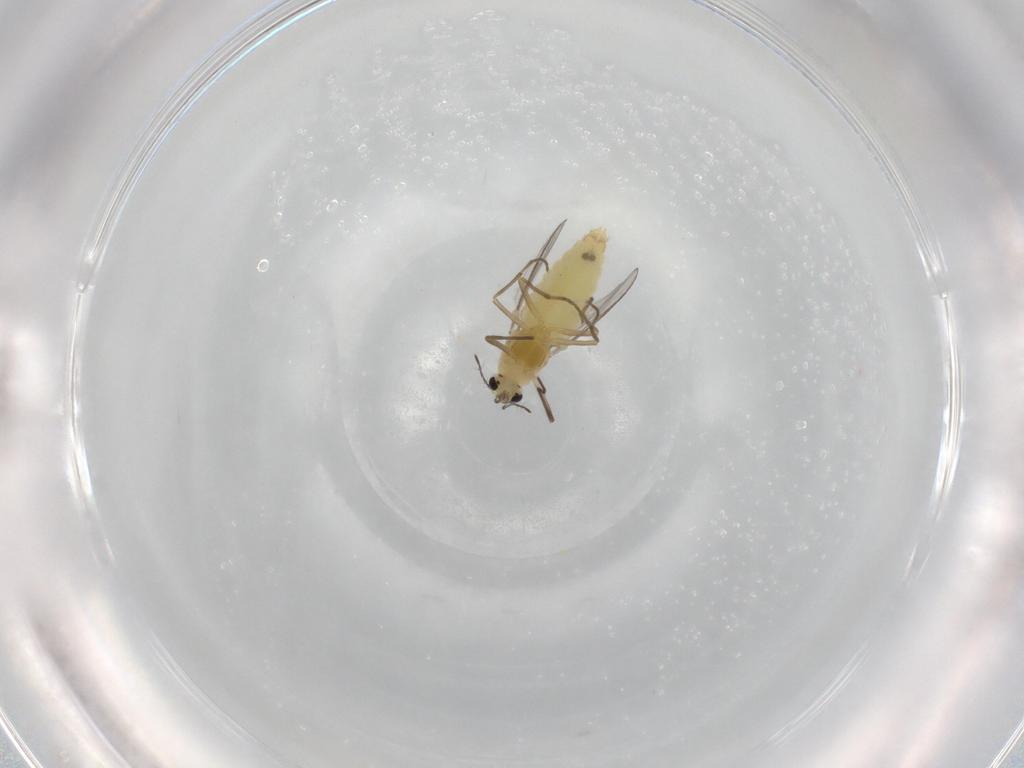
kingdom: Animalia
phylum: Arthropoda
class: Insecta
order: Diptera
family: Chironomidae
